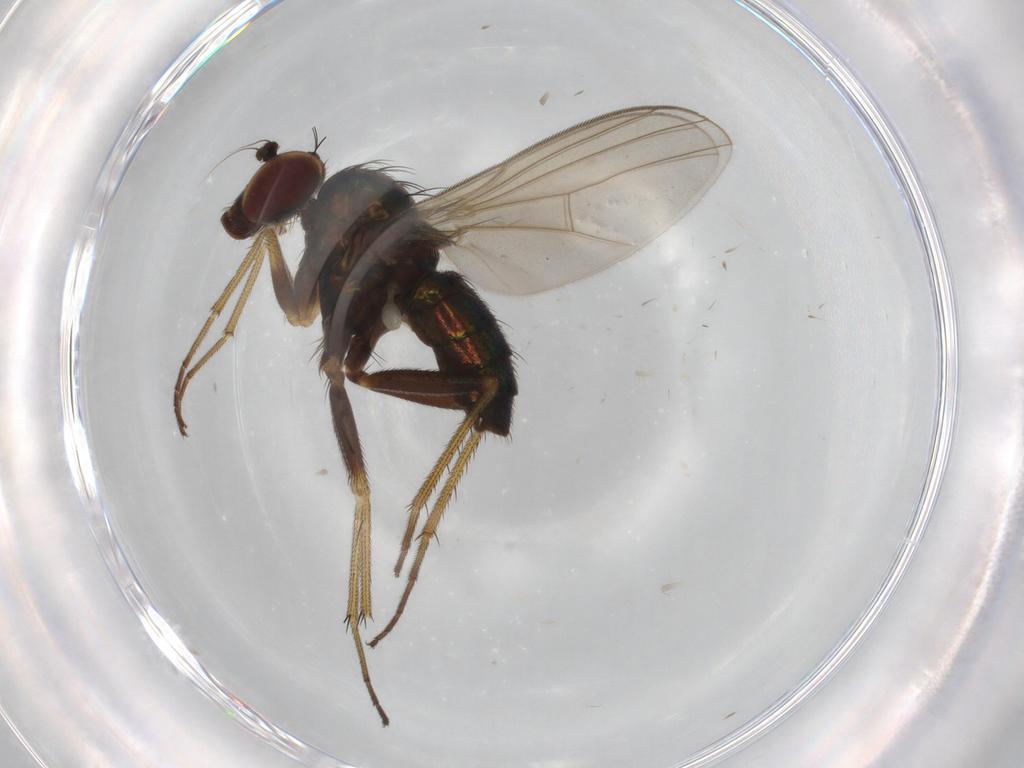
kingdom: Animalia
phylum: Arthropoda
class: Insecta
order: Diptera
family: Dolichopodidae
